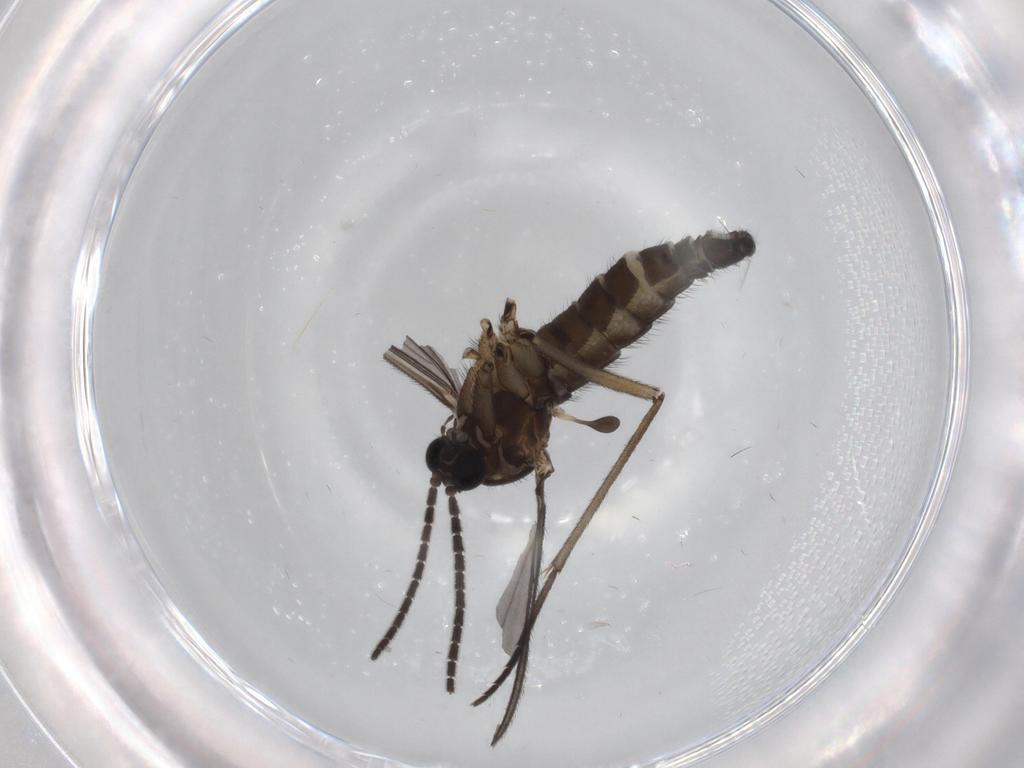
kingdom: Animalia
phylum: Arthropoda
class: Insecta
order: Diptera
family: Sciaridae
